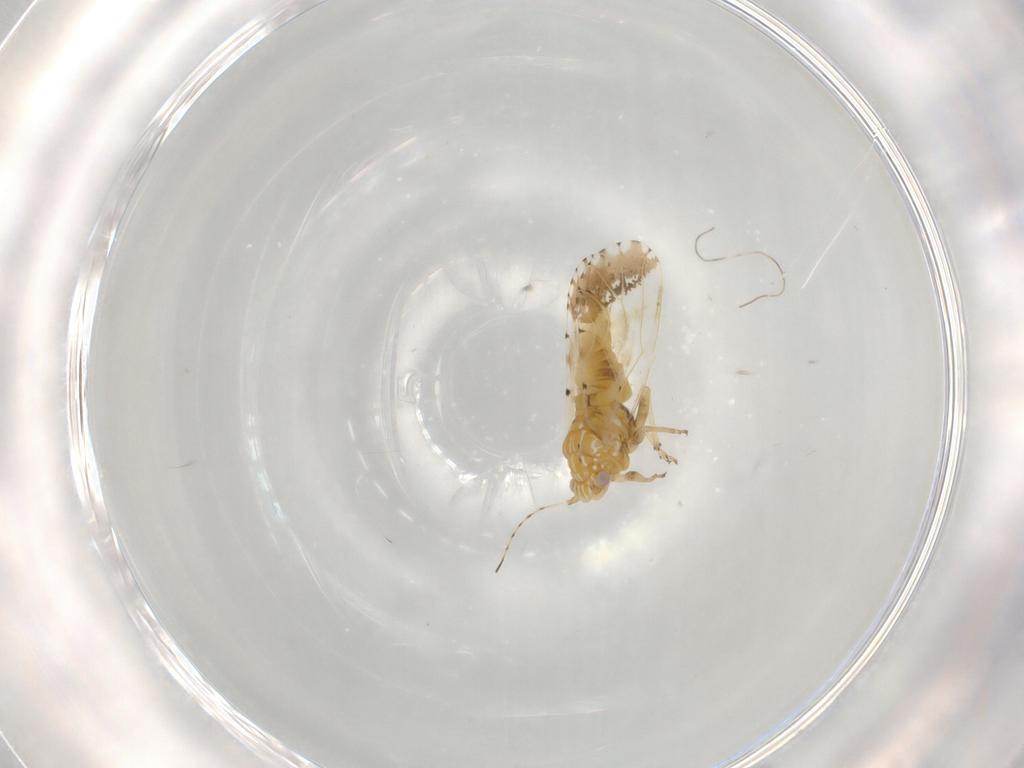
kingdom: Animalia
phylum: Arthropoda
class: Insecta
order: Hemiptera
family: Psyllidae
